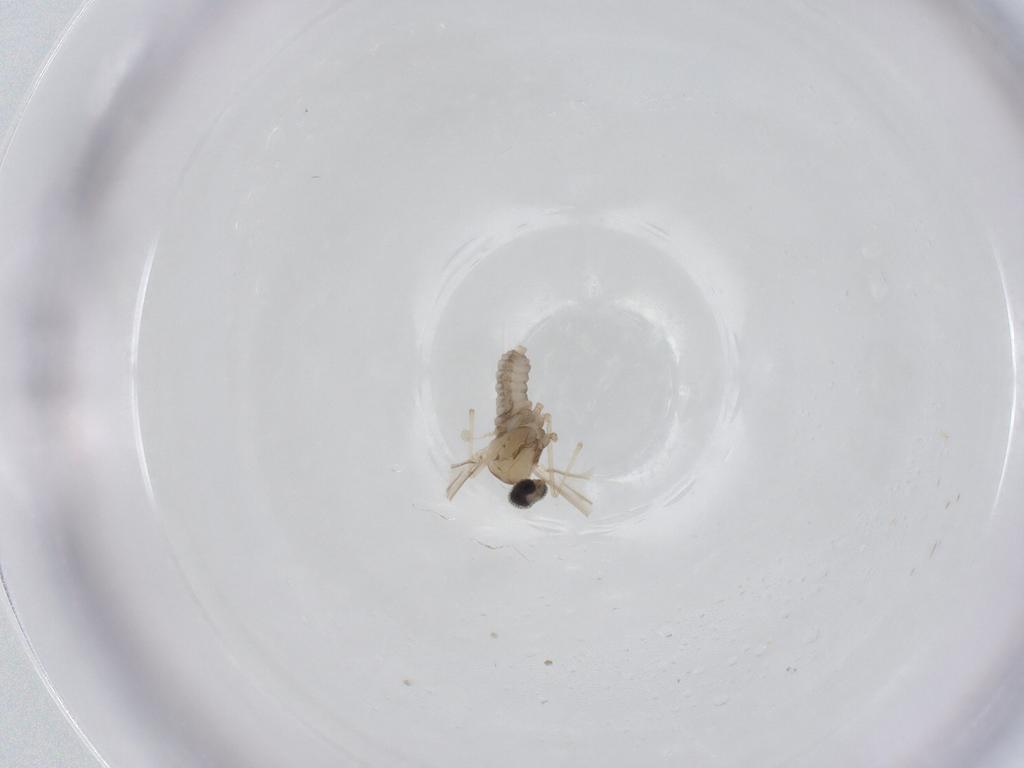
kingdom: Animalia
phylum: Arthropoda
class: Insecta
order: Diptera
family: Cecidomyiidae
